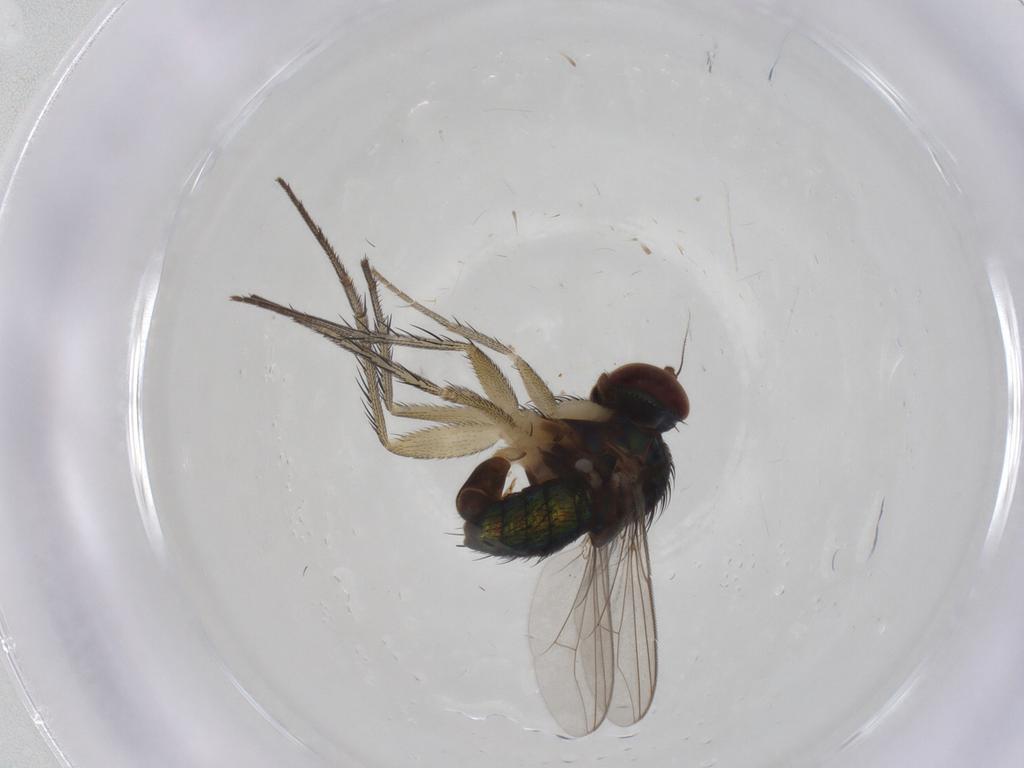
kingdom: Animalia
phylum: Arthropoda
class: Insecta
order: Diptera
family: Dolichopodidae
